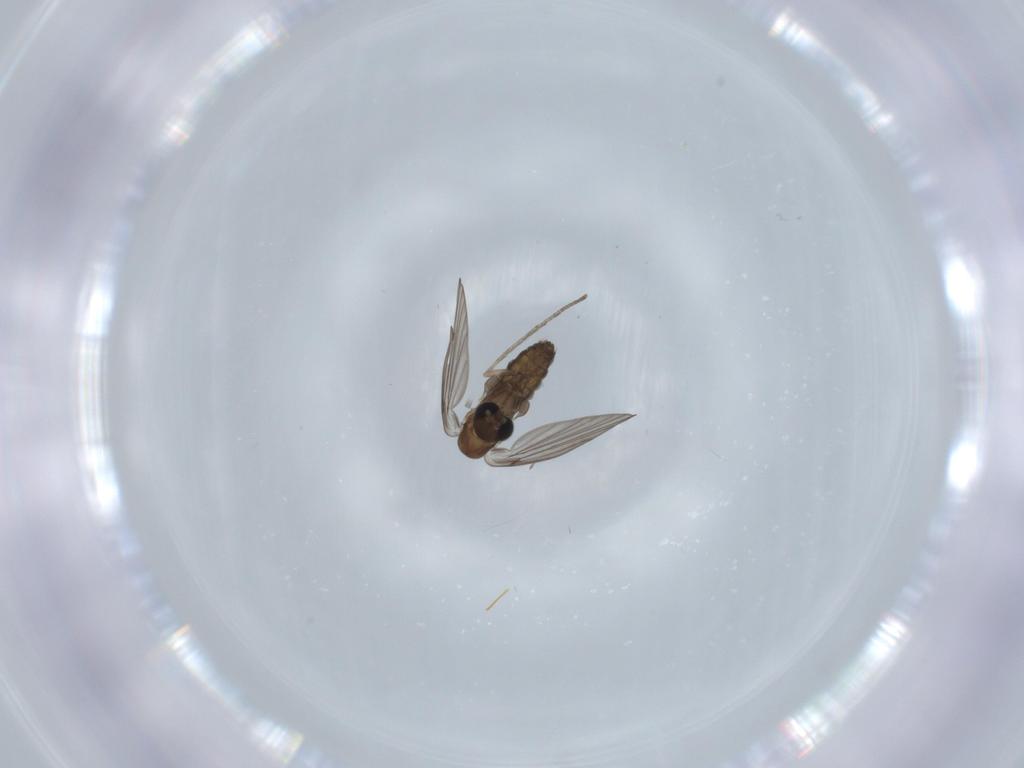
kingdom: Animalia
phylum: Arthropoda
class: Insecta
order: Diptera
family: Psychodidae
